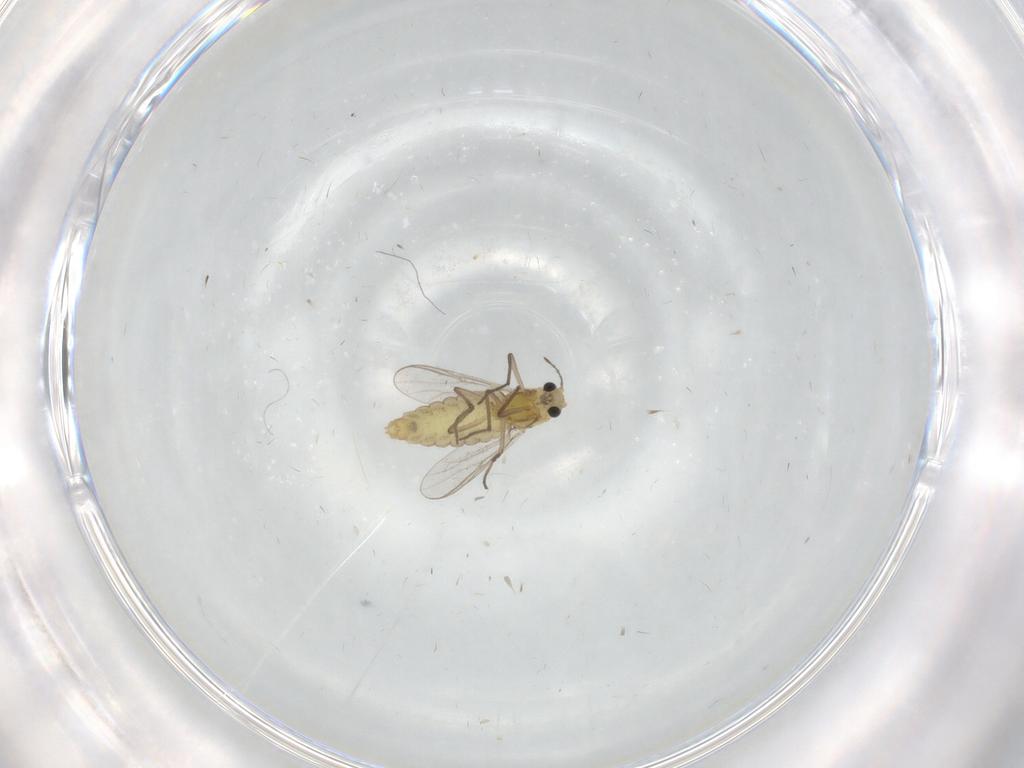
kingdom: Animalia
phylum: Arthropoda
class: Insecta
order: Diptera
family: Chironomidae
